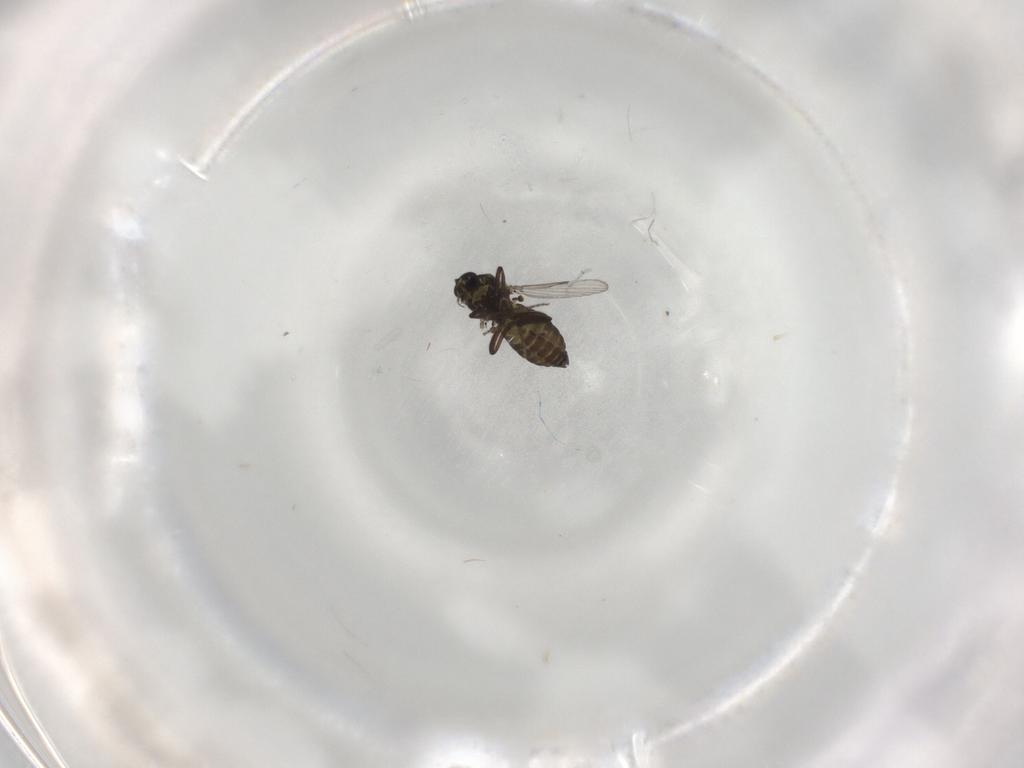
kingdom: Animalia
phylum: Arthropoda
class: Insecta
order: Diptera
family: Ceratopogonidae
